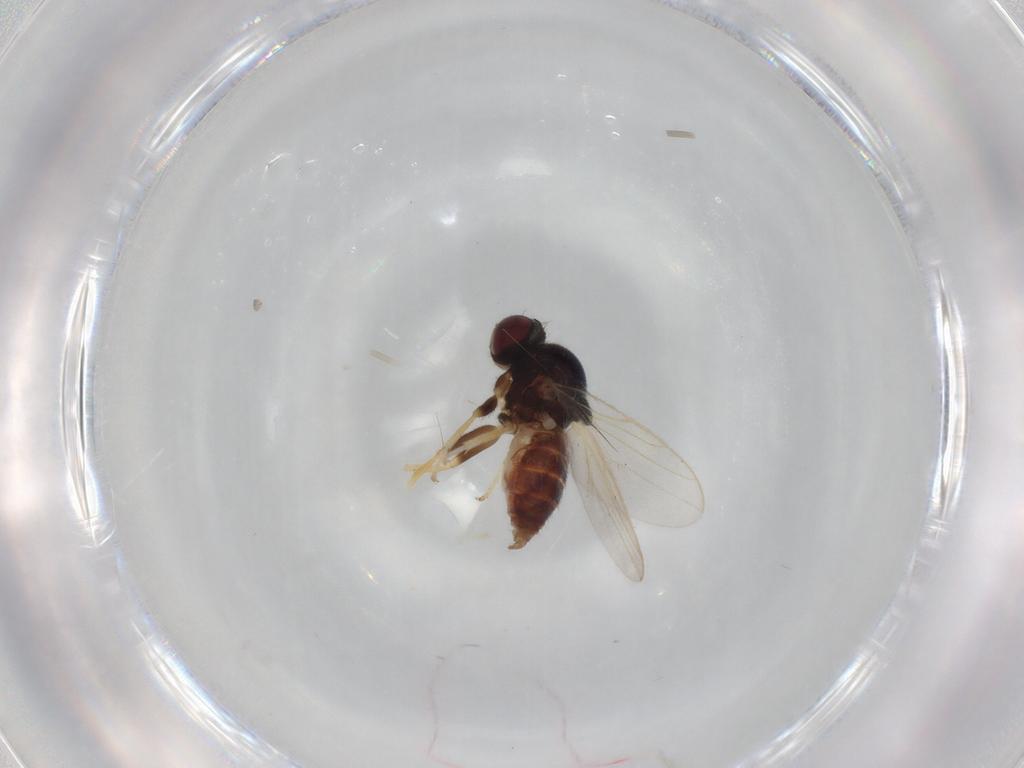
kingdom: Animalia
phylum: Arthropoda
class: Insecta
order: Diptera
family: Chloropidae
